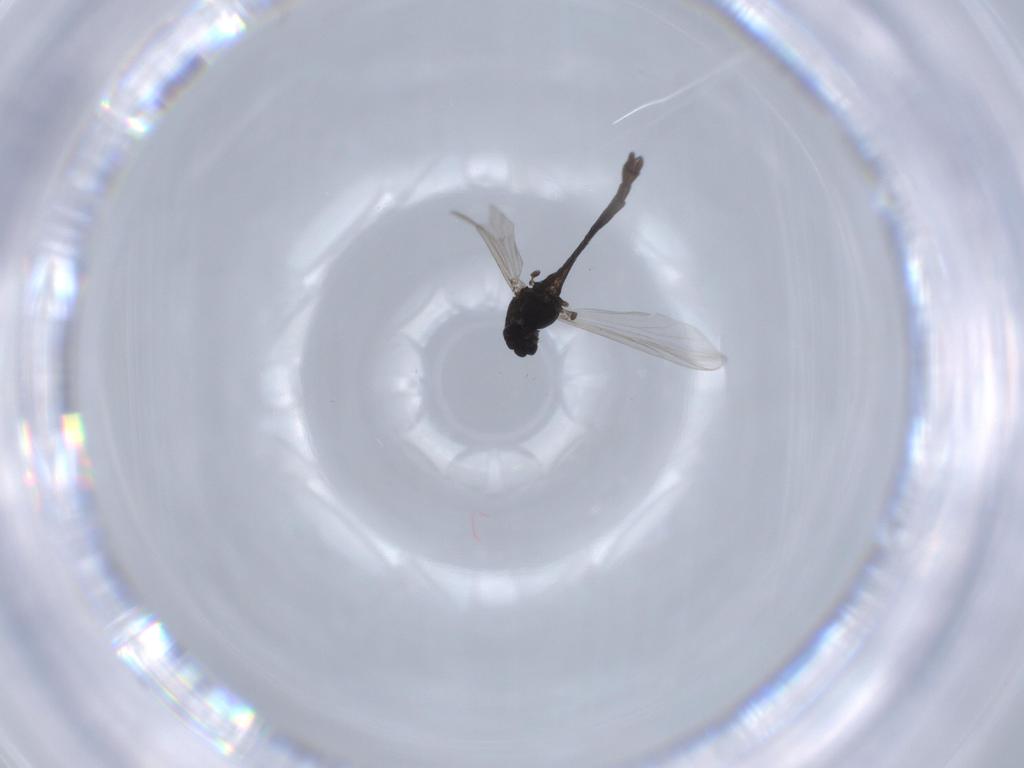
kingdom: Animalia
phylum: Arthropoda
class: Insecta
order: Diptera
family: Chironomidae
